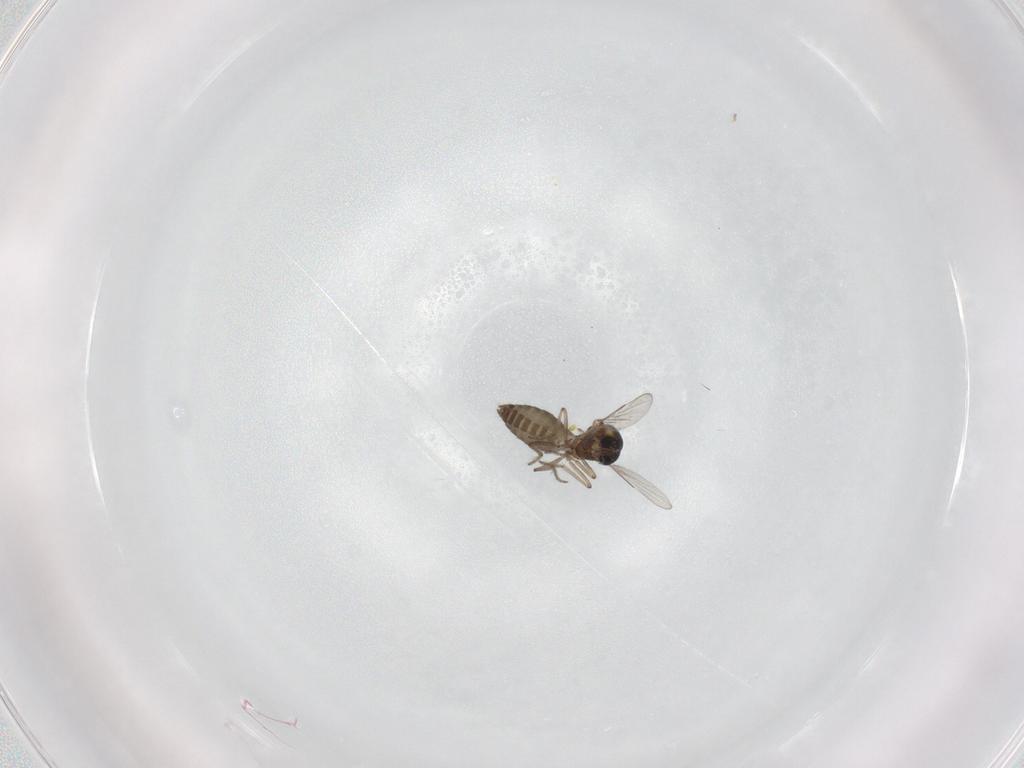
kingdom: Animalia
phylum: Arthropoda
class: Insecta
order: Diptera
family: Ceratopogonidae
